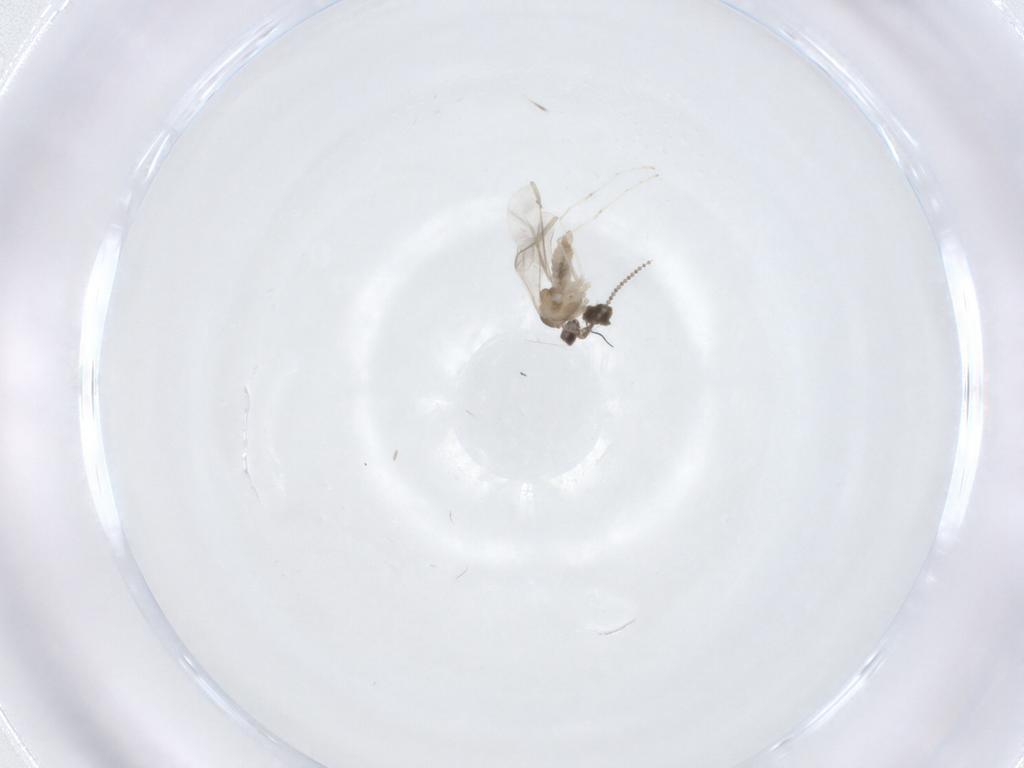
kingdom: Animalia
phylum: Arthropoda
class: Insecta
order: Diptera
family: Cecidomyiidae
